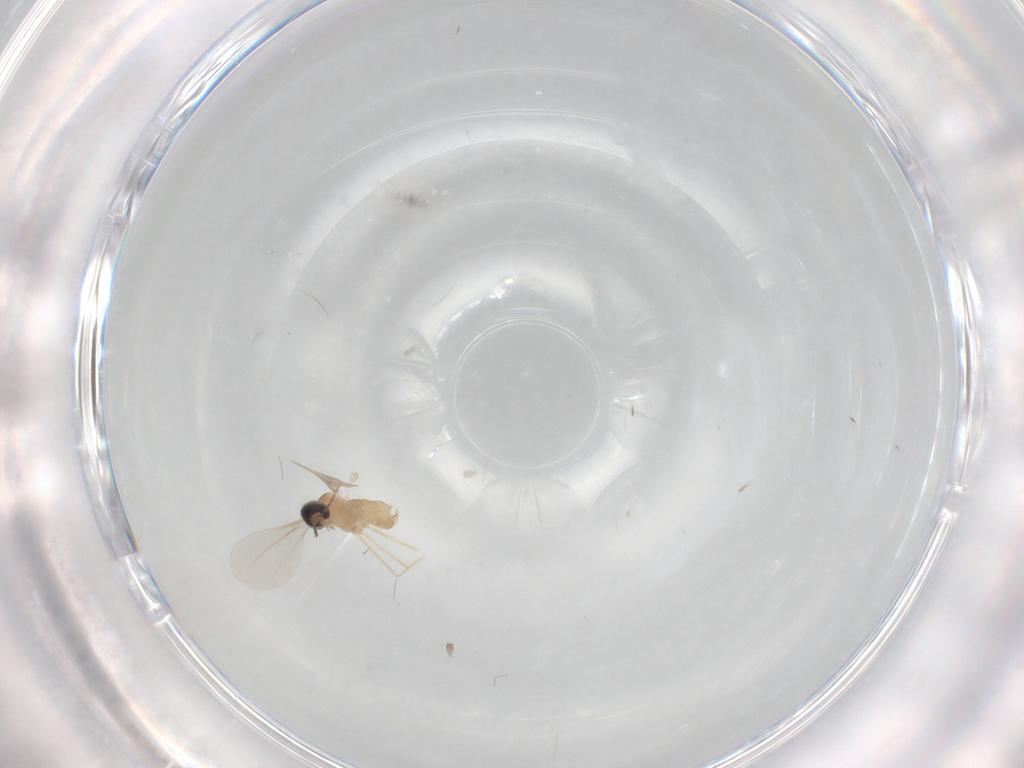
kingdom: Animalia
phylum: Arthropoda
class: Insecta
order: Diptera
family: Cecidomyiidae
